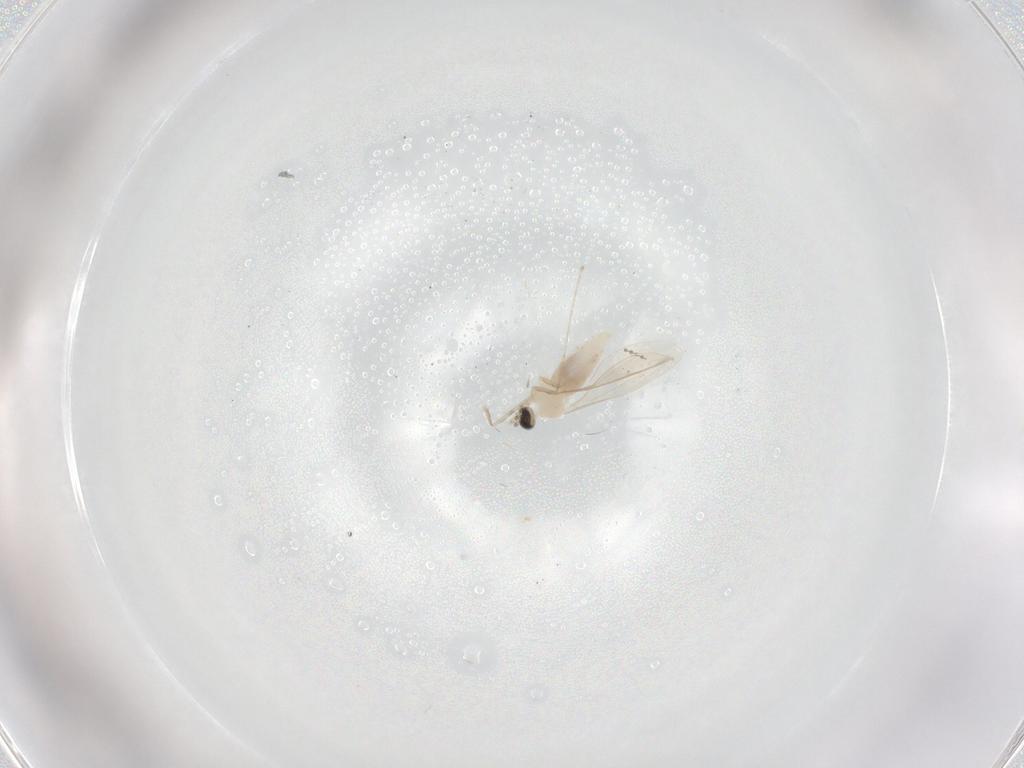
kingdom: Animalia
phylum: Arthropoda
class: Insecta
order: Diptera
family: Cecidomyiidae
